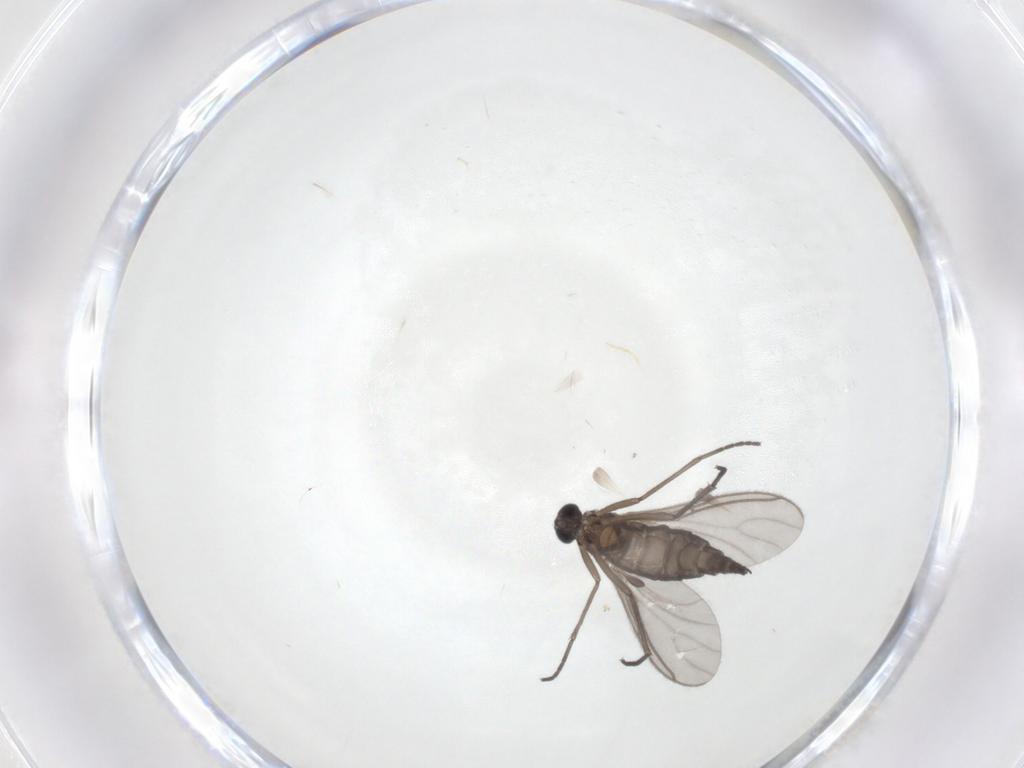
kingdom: Animalia
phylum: Arthropoda
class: Insecta
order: Diptera
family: Sciaridae
